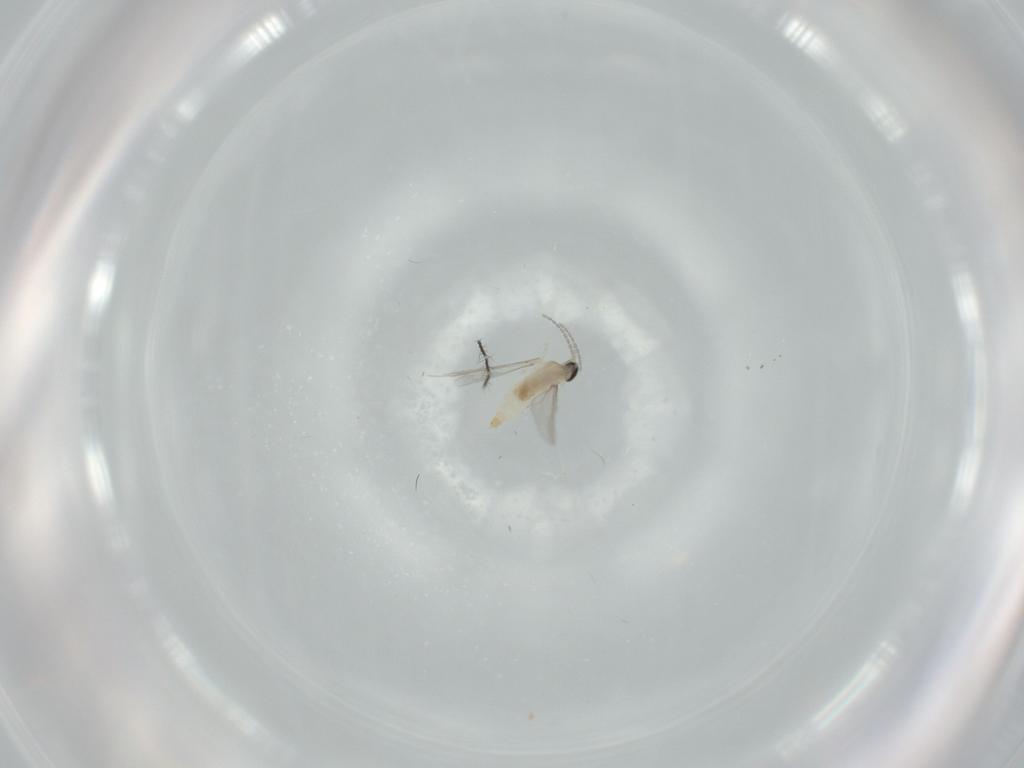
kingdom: Animalia
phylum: Arthropoda
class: Insecta
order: Diptera
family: Cecidomyiidae
